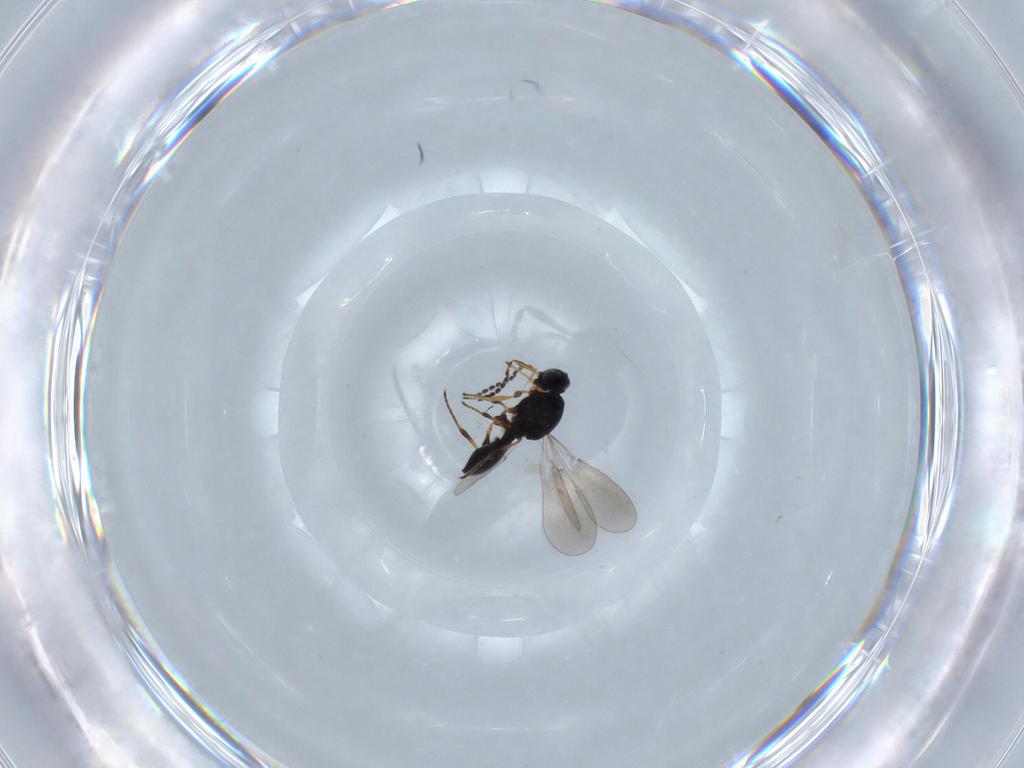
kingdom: Animalia
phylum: Arthropoda
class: Insecta
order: Hymenoptera
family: Platygastridae
